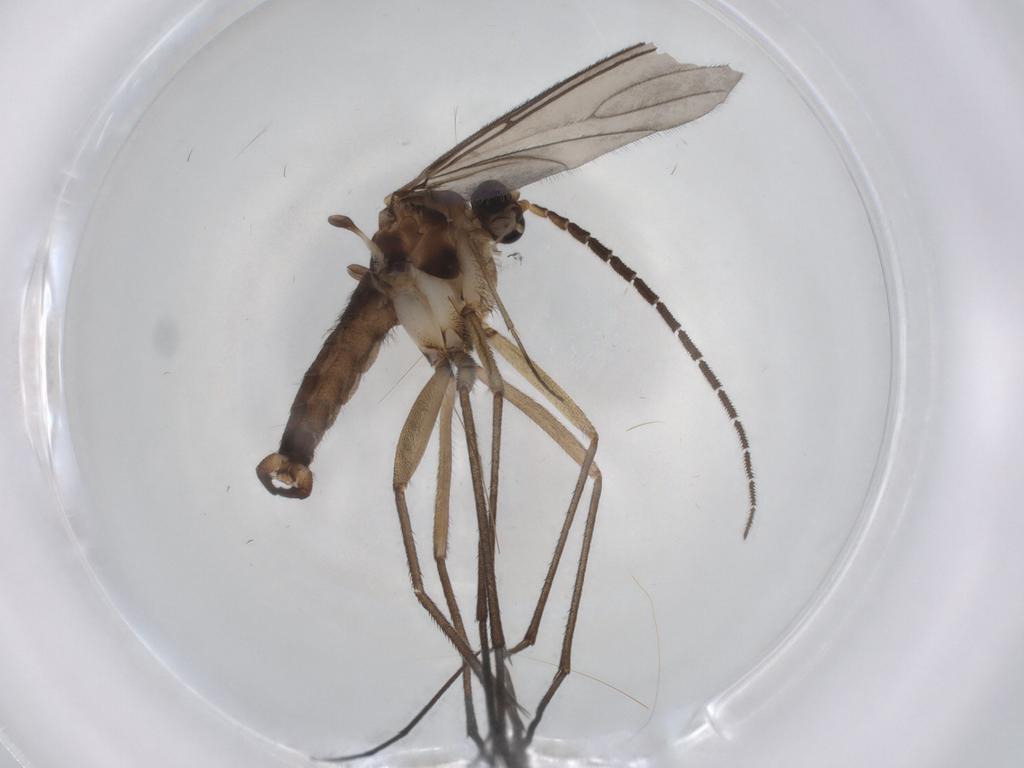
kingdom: Animalia
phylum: Arthropoda
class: Insecta
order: Diptera
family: Sciaridae
